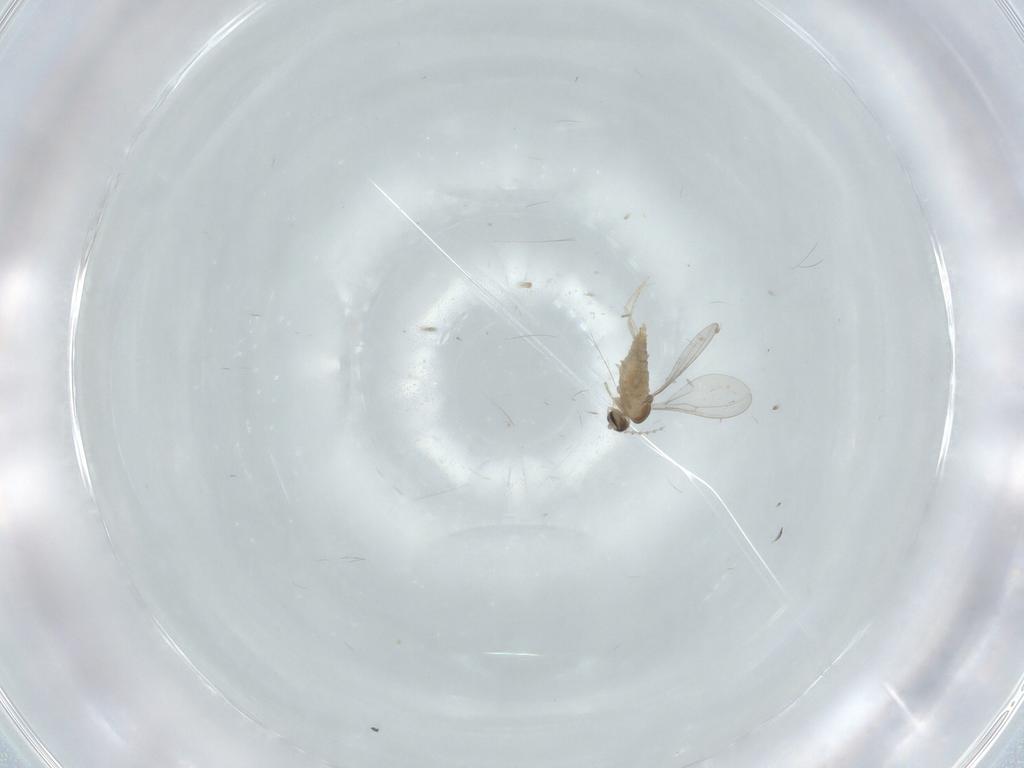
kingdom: Animalia
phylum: Arthropoda
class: Insecta
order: Diptera
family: Cecidomyiidae
